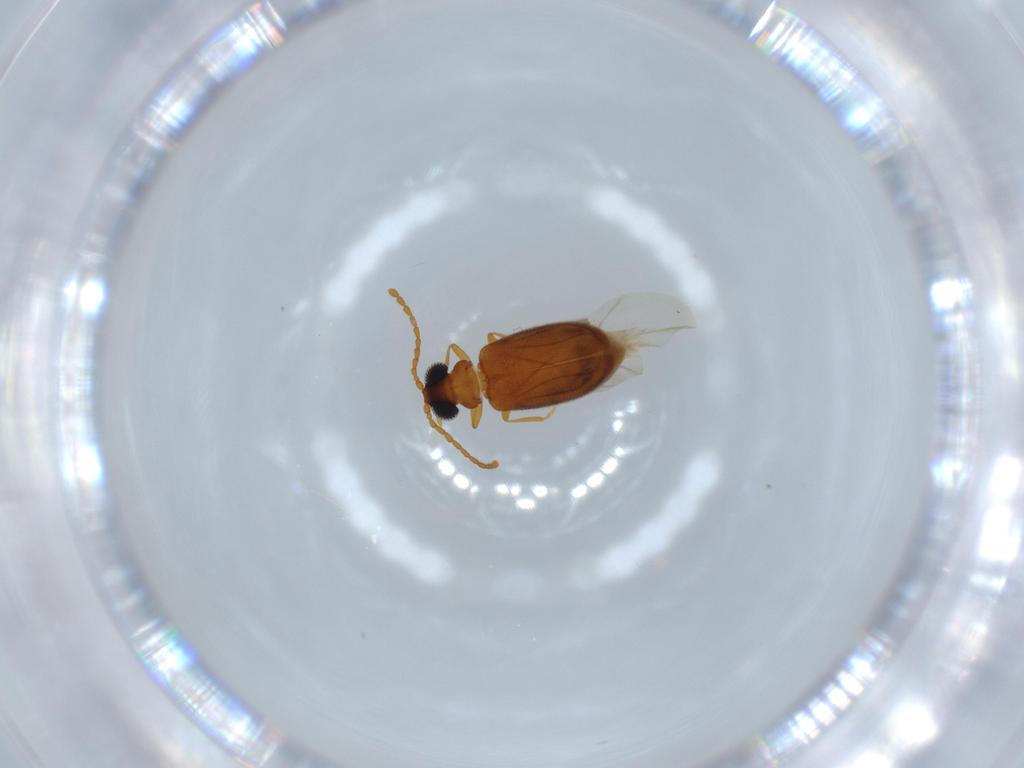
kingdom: Animalia
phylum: Arthropoda
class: Insecta
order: Coleoptera
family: Aderidae
